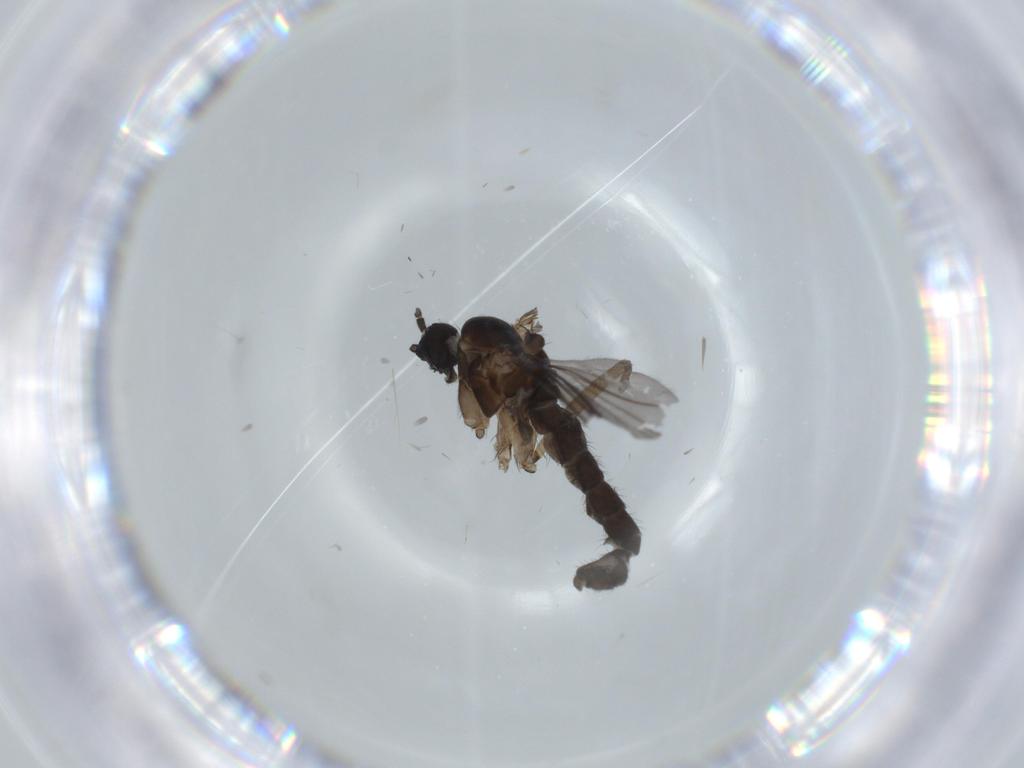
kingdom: Animalia
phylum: Arthropoda
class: Insecta
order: Diptera
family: Sciaridae
